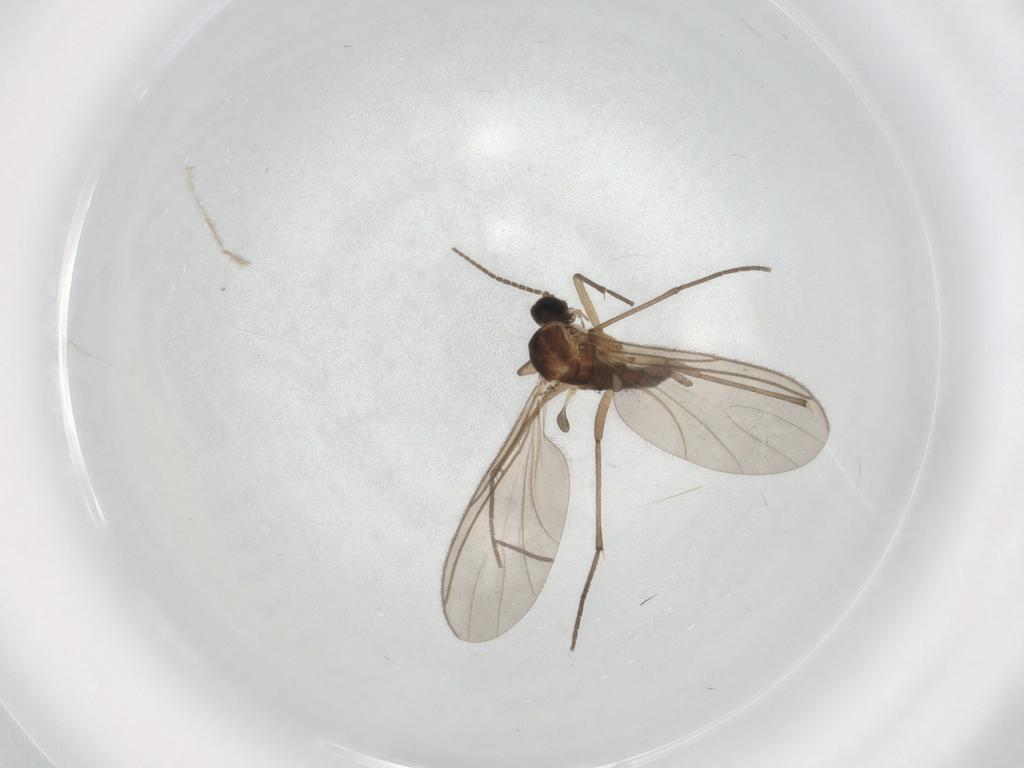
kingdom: Animalia
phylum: Arthropoda
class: Insecta
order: Diptera
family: Sciaridae
